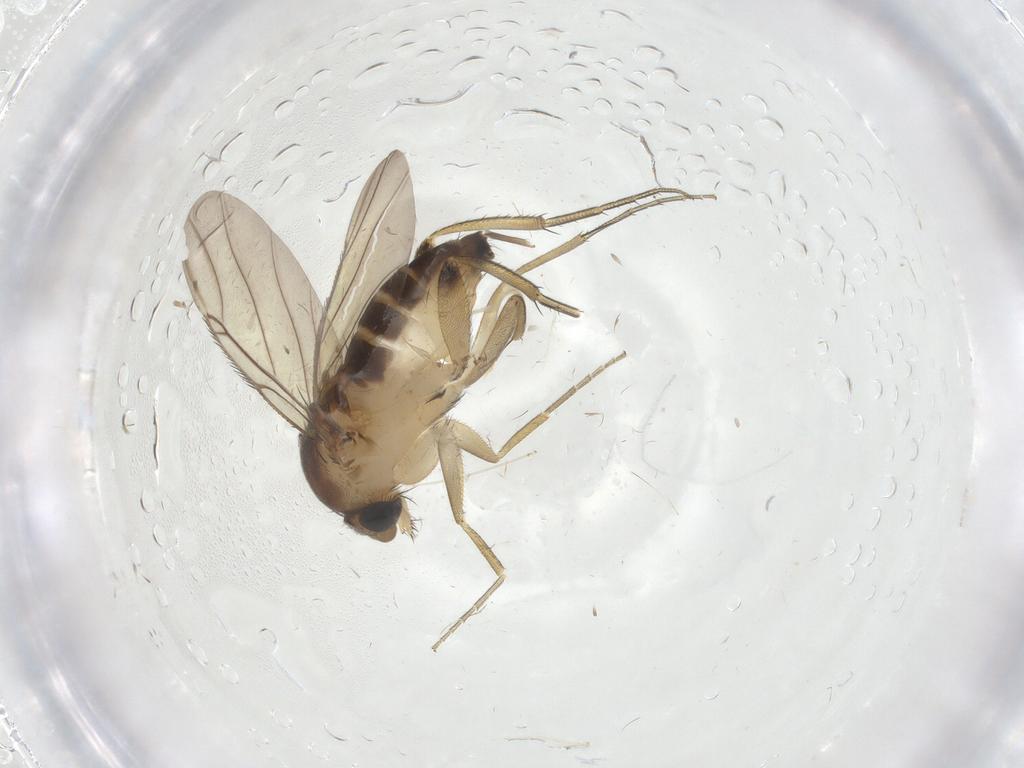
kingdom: Animalia
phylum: Arthropoda
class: Insecta
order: Diptera
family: Phoridae
